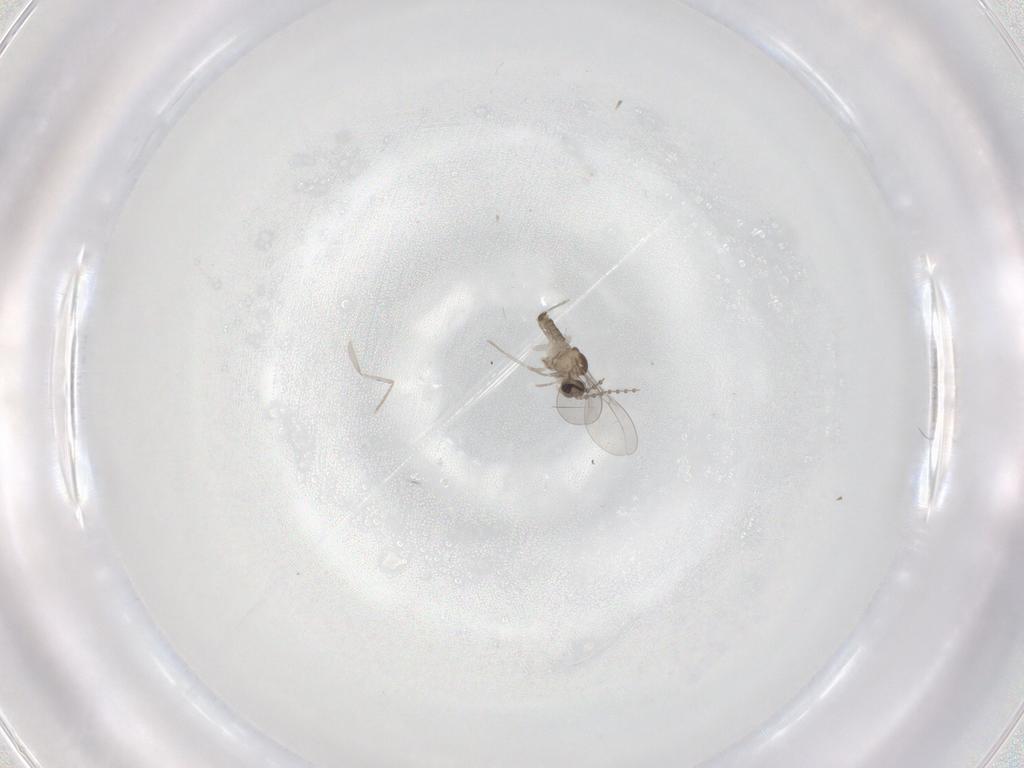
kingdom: Animalia
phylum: Arthropoda
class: Insecta
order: Diptera
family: Cecidomyiidae
